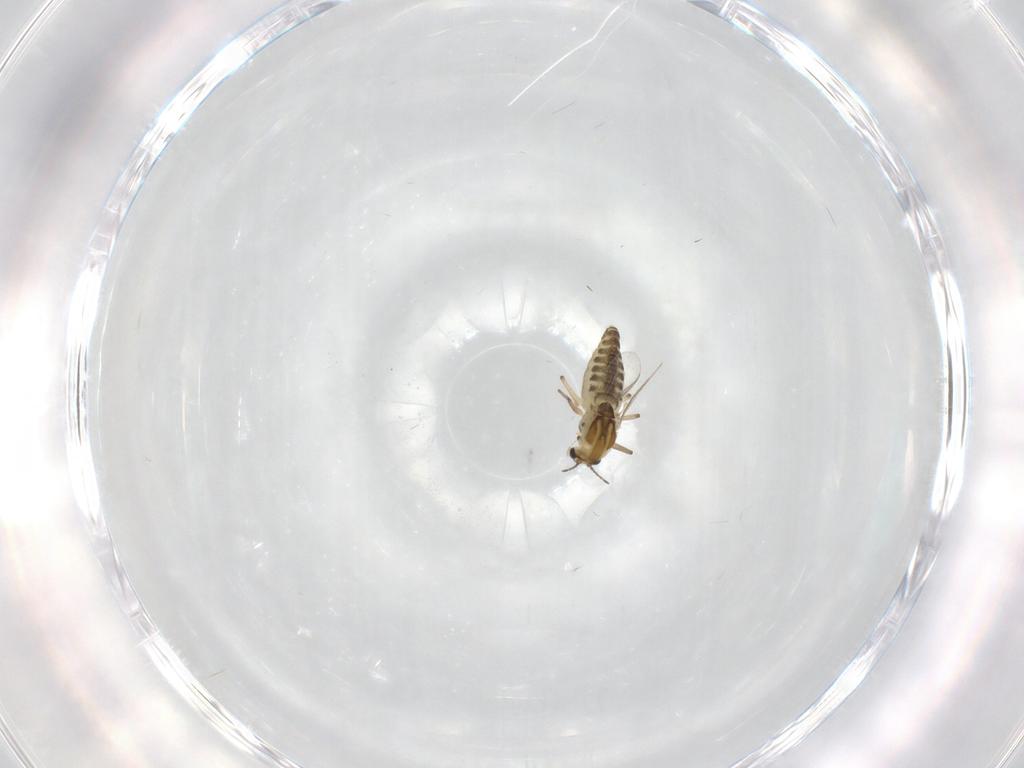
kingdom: Animalia
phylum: Arthropoda
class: Insecta
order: Diptera
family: Chironomidae
